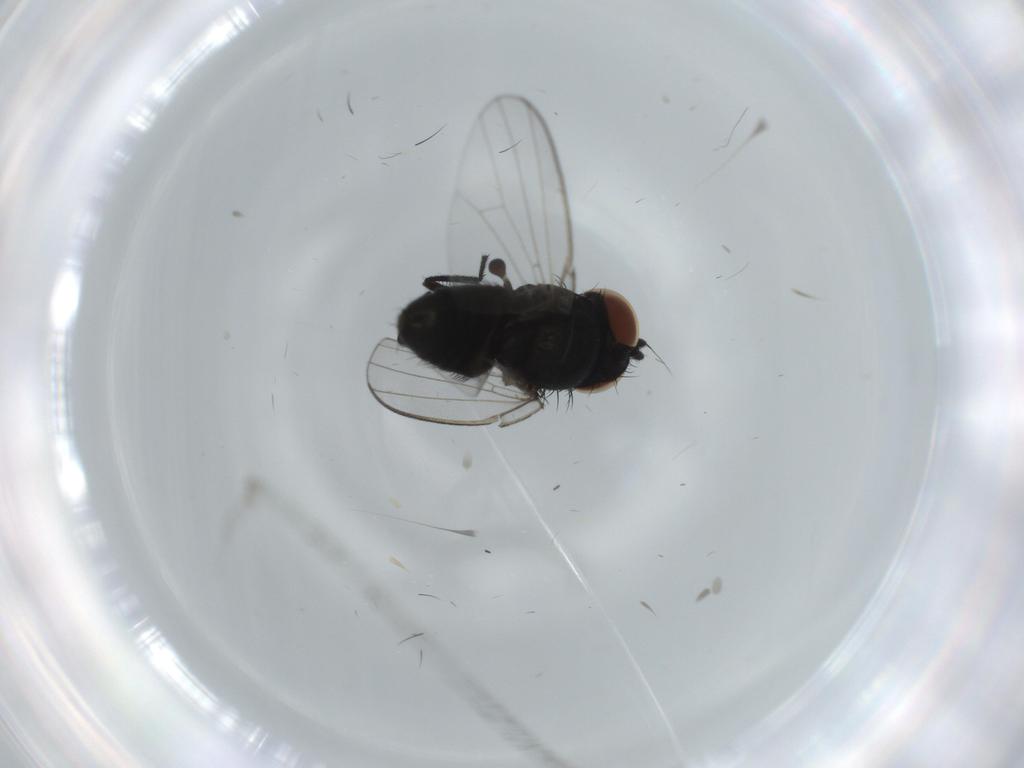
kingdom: Animalia
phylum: Arthropoda
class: Insecta
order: Diptera
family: Milichiidae
